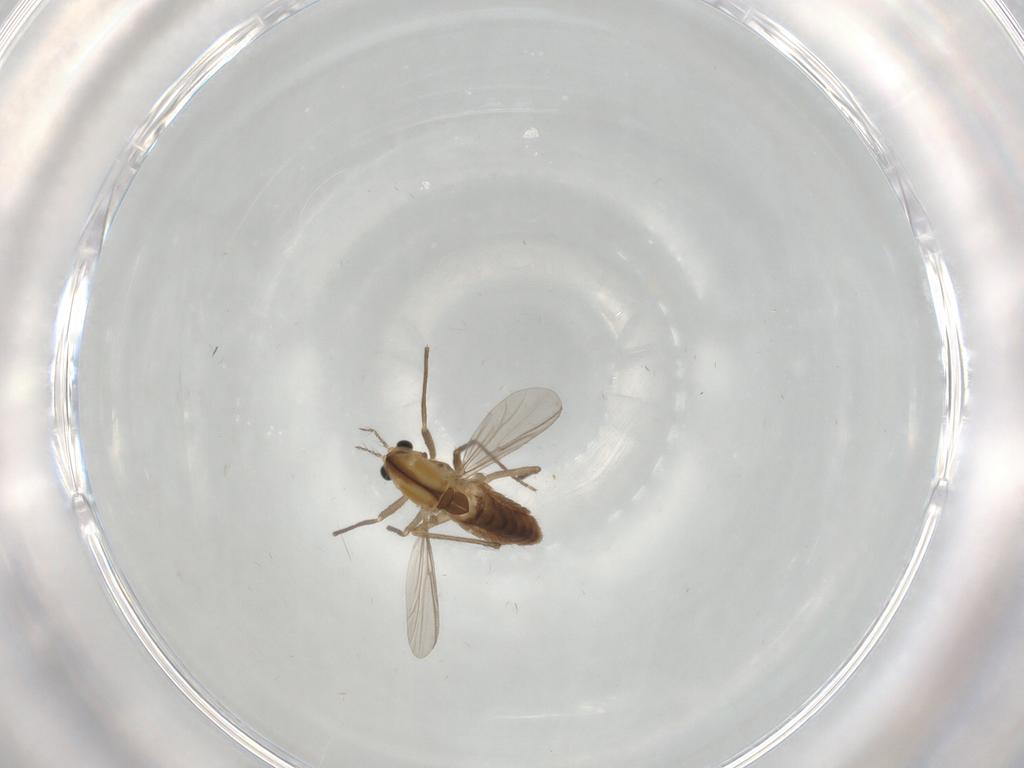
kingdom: Animalia
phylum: Arthropoda
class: Insecta
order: Diptera
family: Chironomidae
